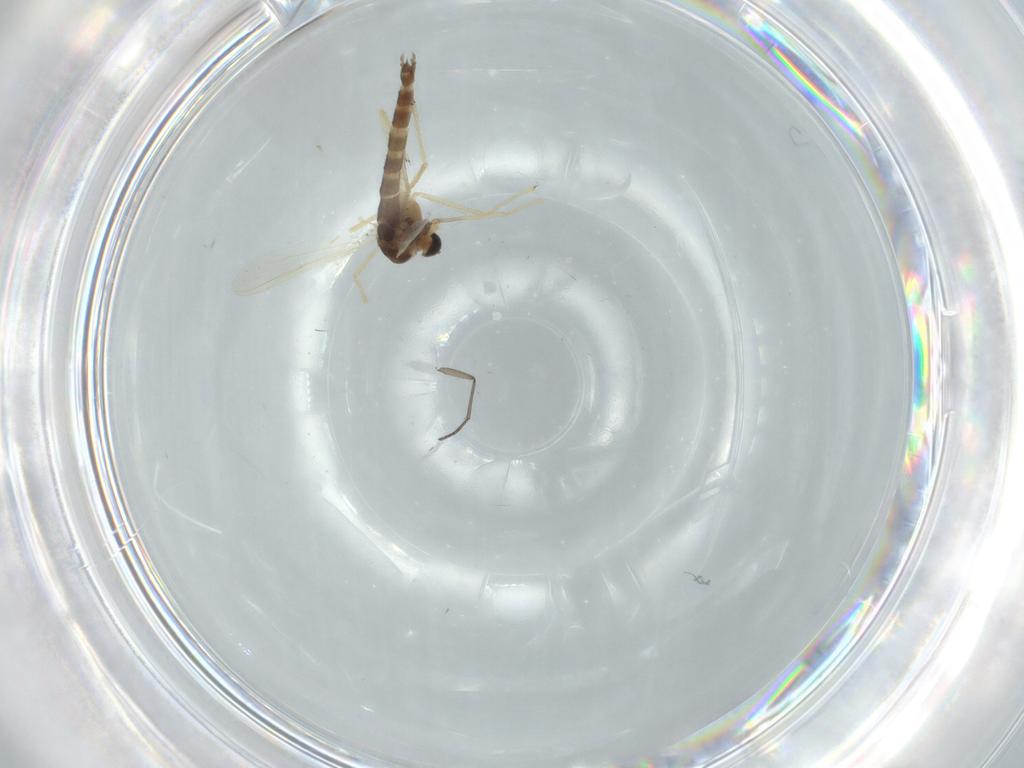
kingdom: Animalia
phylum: Arthropoda
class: Insecta
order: Diptera
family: Chironomidae
